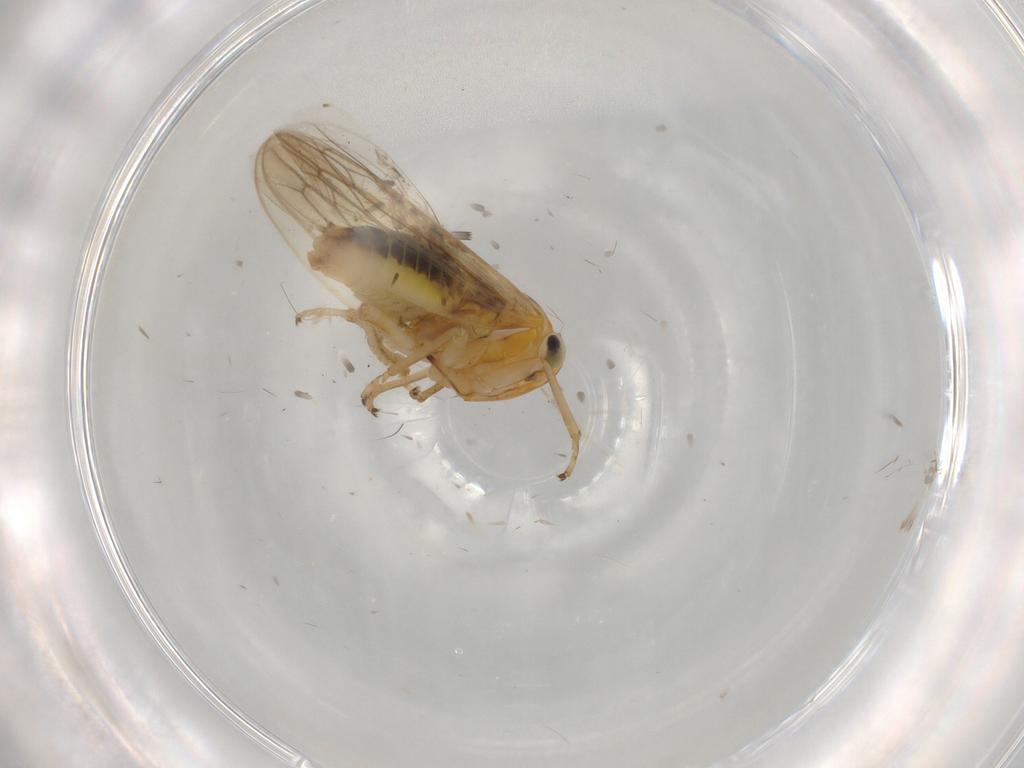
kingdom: Animalia
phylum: Arthropoda
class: Insecta
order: Hemiptera
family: Cicadellidae
